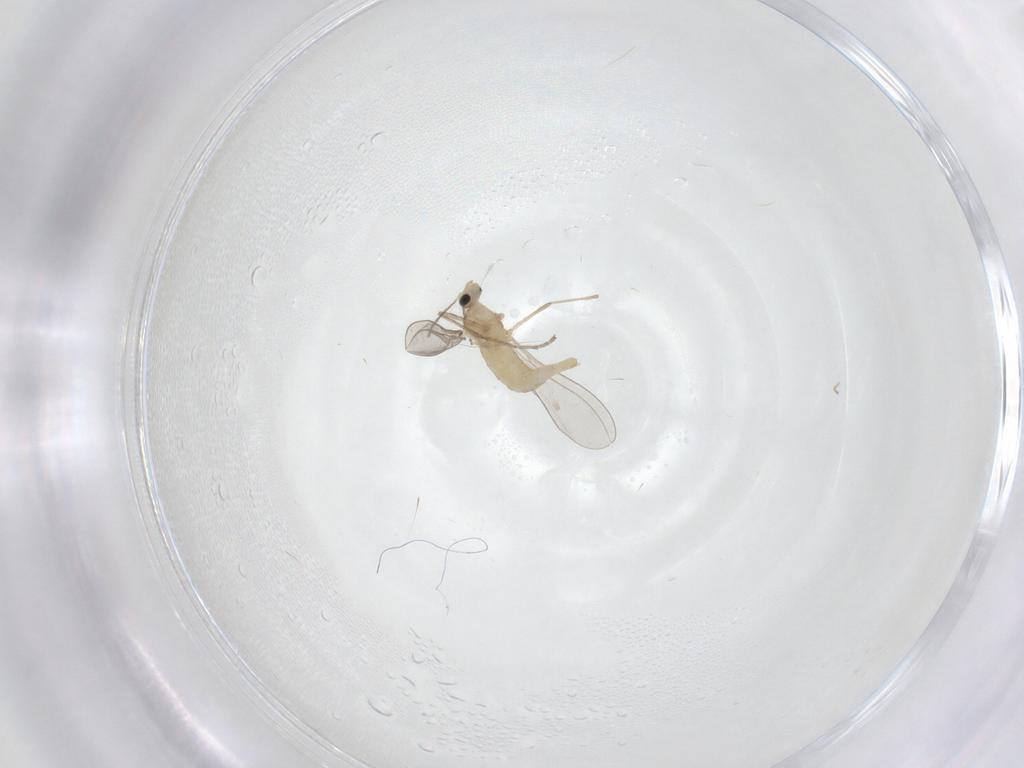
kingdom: Animalia
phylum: Arthropoda
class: Insecta
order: Diptera
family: Cecidomyiidae
